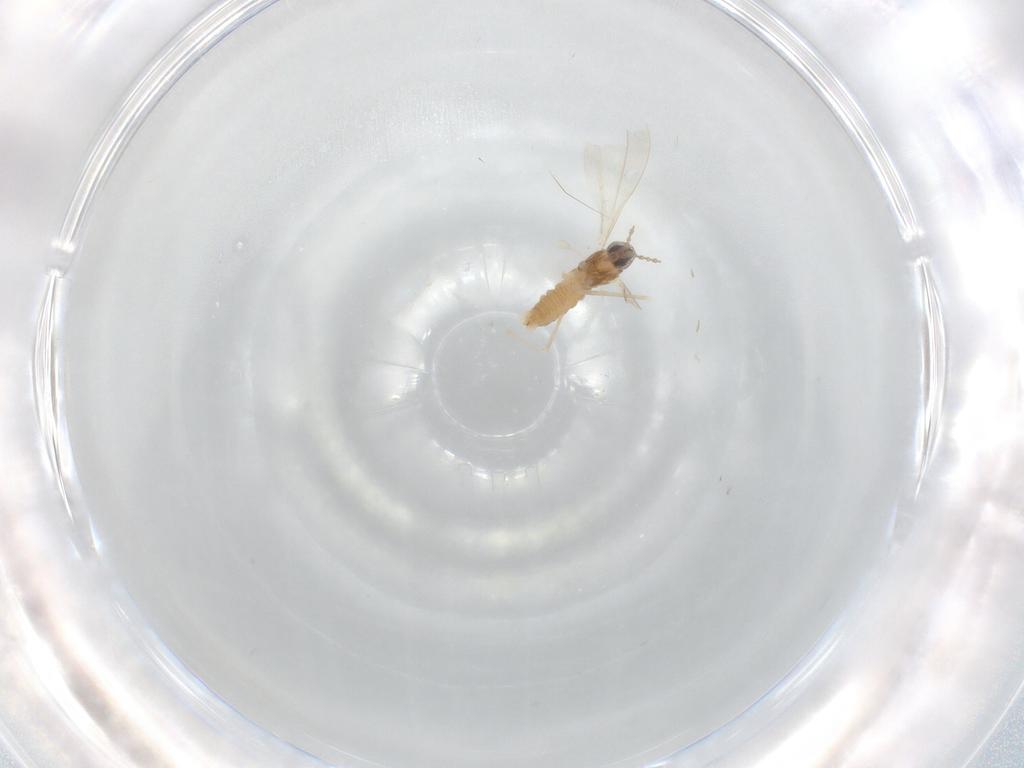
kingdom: Animalia
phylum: Arthropoda
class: Insecta
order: Diptera
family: Cecidomyiidae
